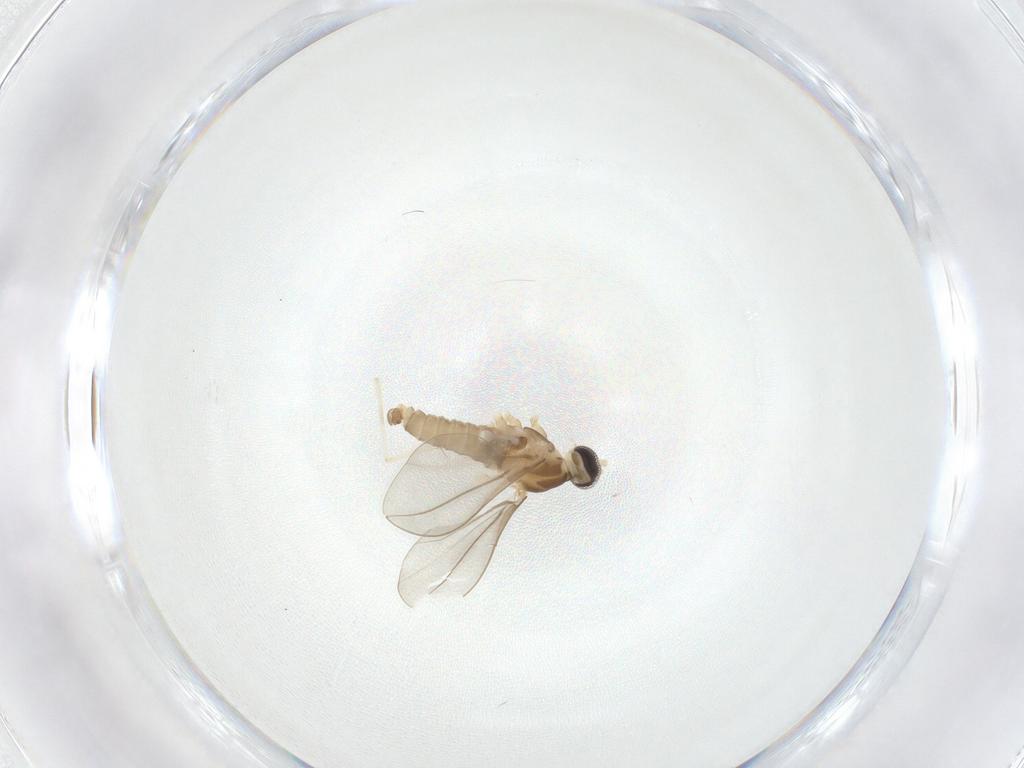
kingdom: Animalia
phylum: Arthropoda
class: Insecta
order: Diptera
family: Cecidomyiidae
